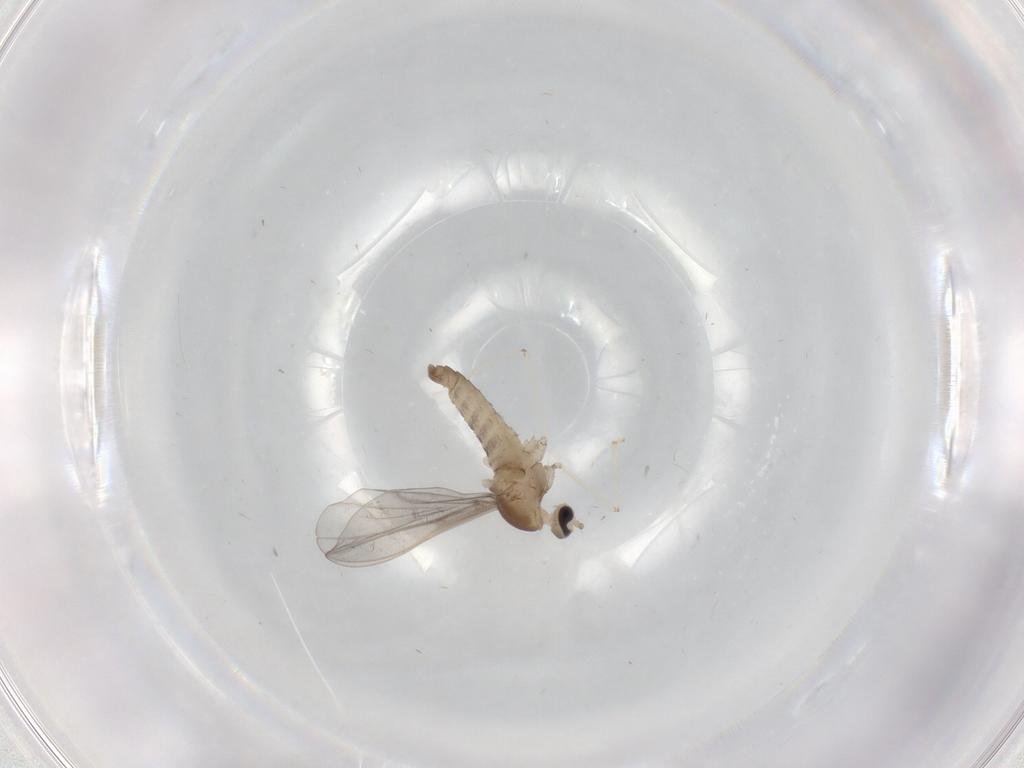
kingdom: Animalia
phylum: Arthropoda
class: Insecta
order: Diptera
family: Cecidomyiidae
